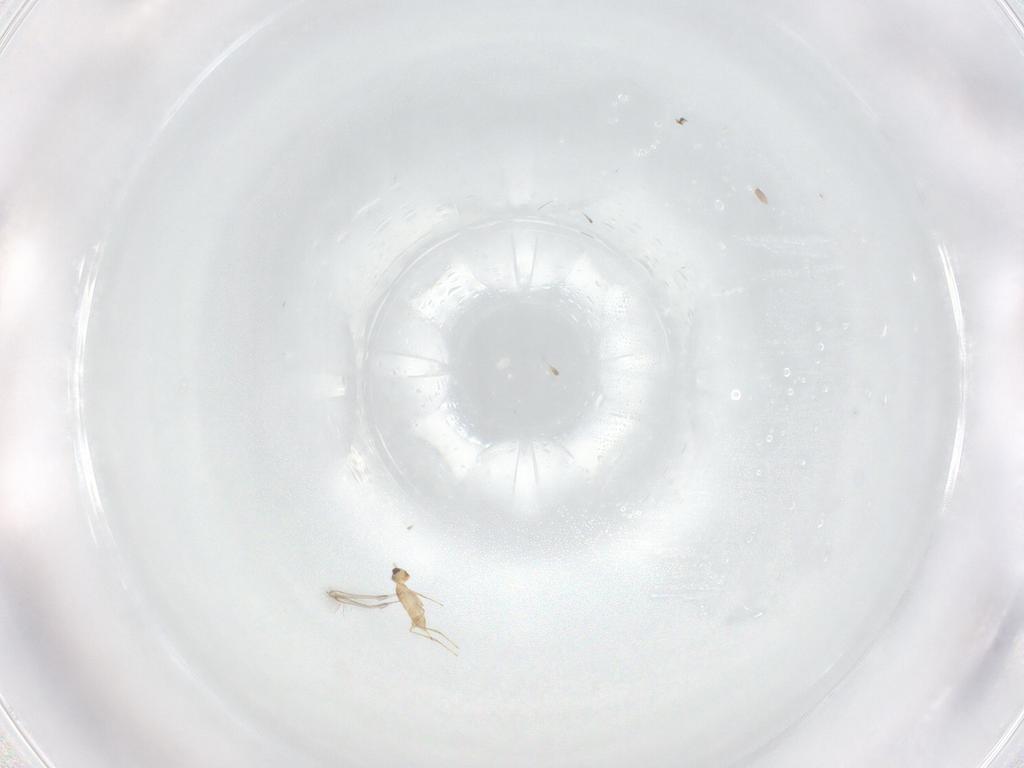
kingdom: Animalia
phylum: Arthropoda
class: Insecta
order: Hymenoptera
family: Mymaridae
